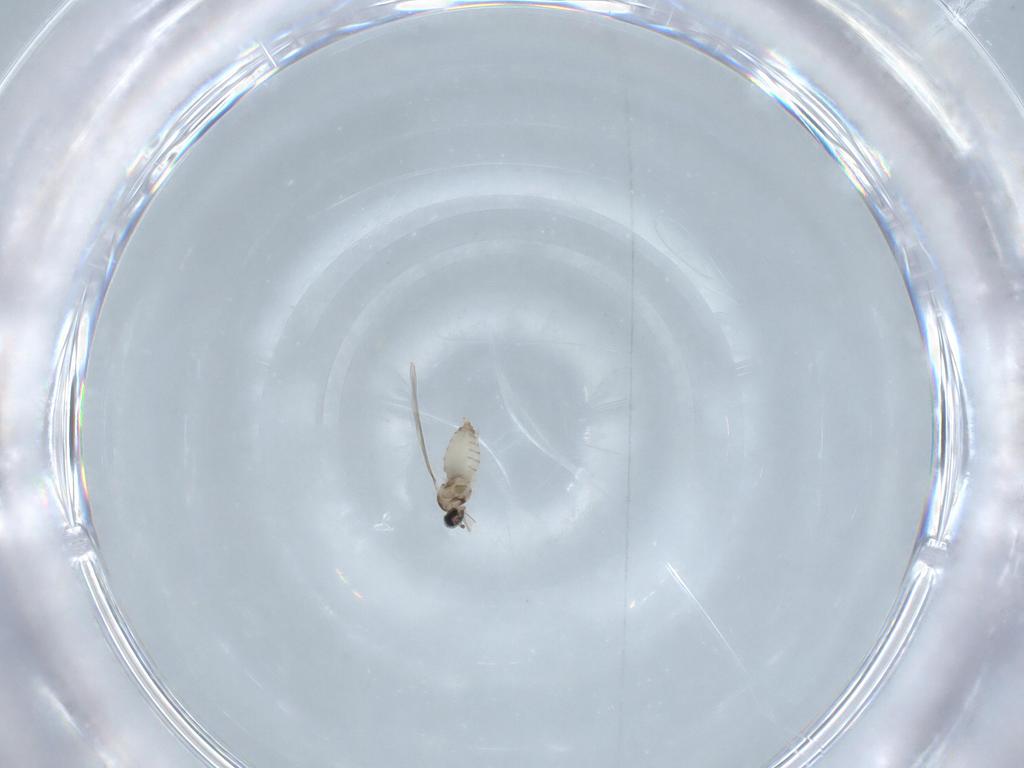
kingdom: Animalia
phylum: Arthropoda
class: Insecta
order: Diptera
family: Cecidomyiidae
